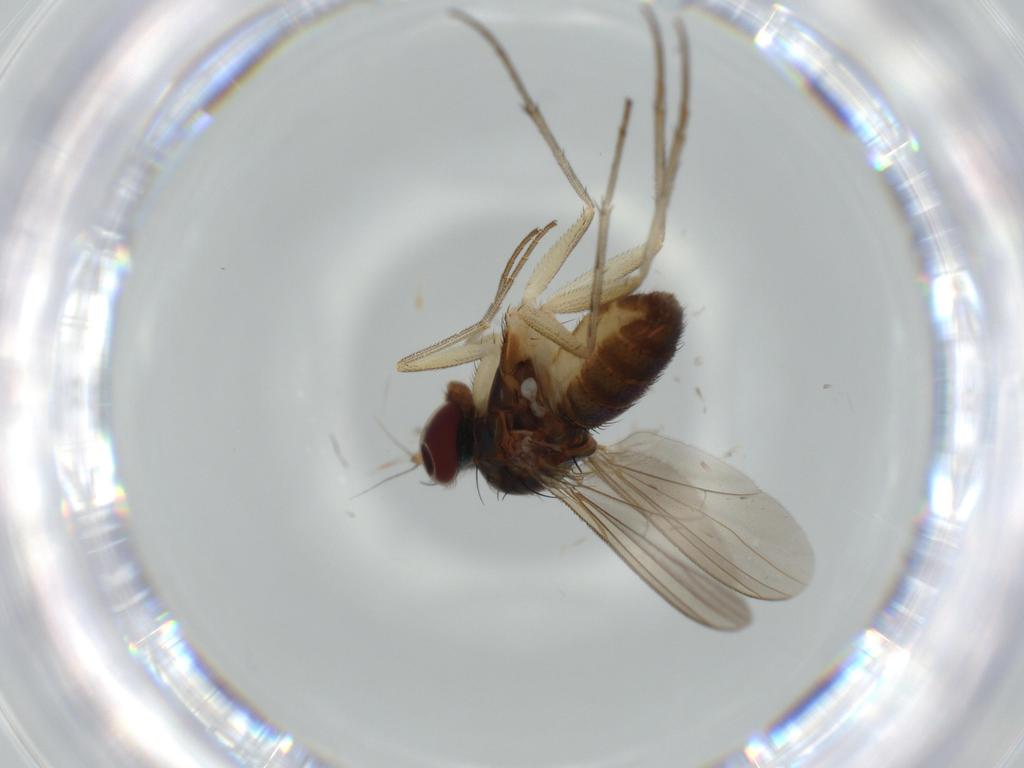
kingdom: Animalia
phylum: Arthropoda
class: Insecta
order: Diptera
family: Dolichopodidae
